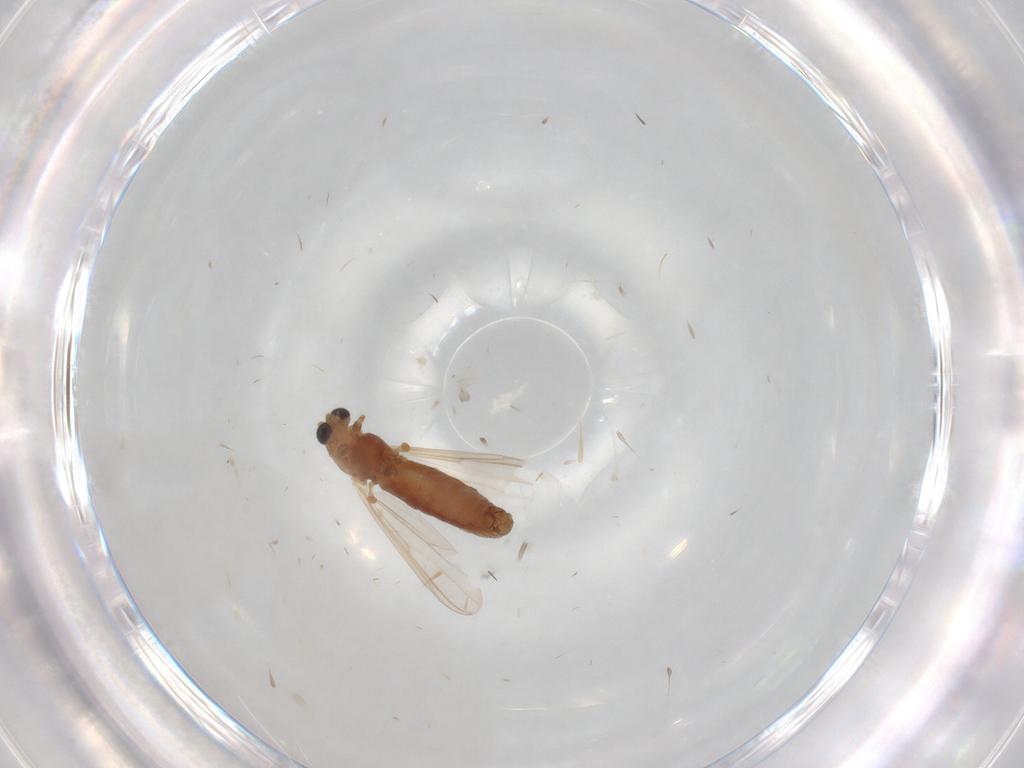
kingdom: Animalia
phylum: Arthropoda
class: Insecta
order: Diptera
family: Chironomidae
